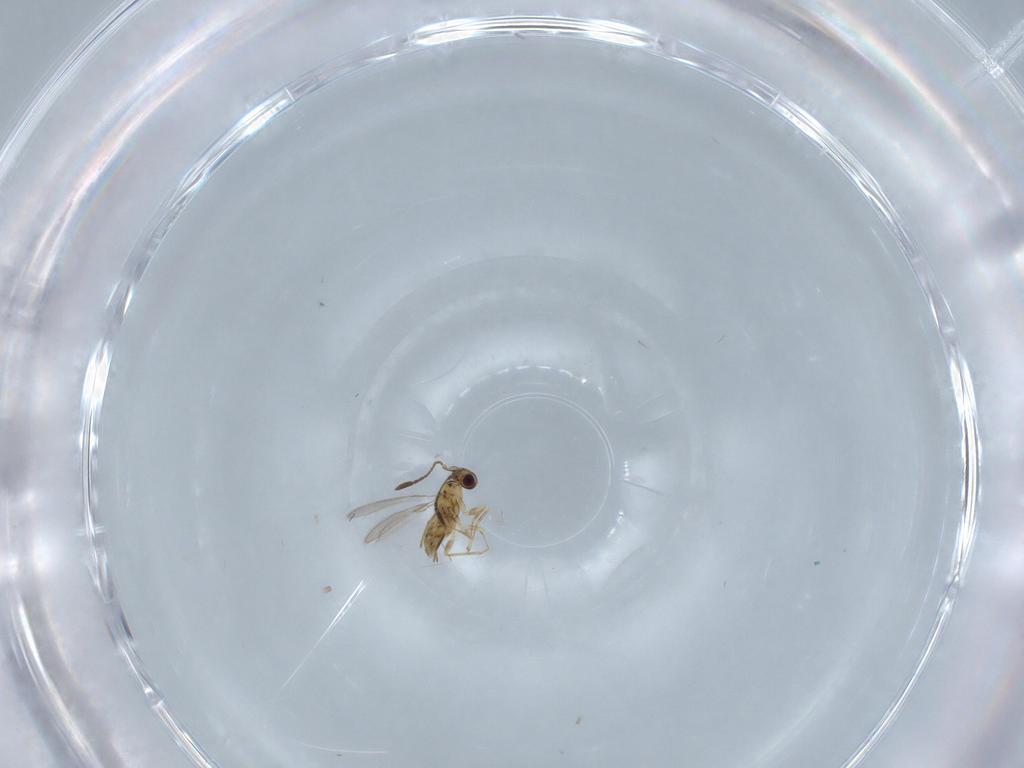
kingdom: Animalia
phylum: Arthropoda
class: Insecta
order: Hymenoptera
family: Mymaridae
